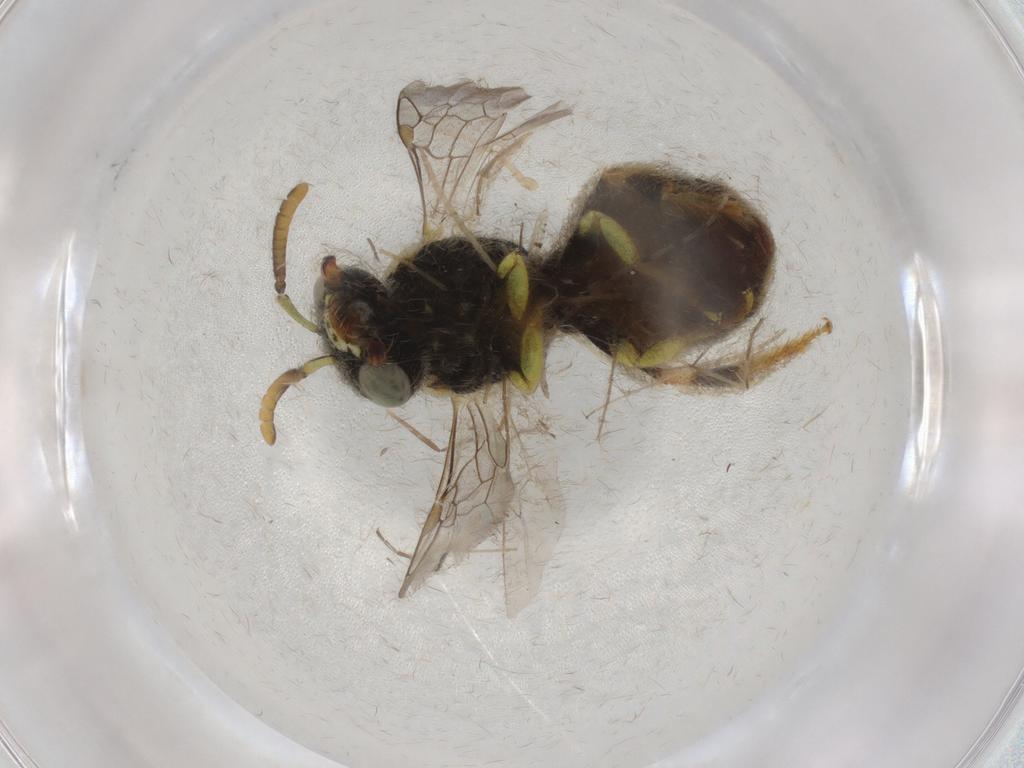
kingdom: Animalia
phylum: Arthropoda
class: Insecta
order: Hymenoptera
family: Halictidae
